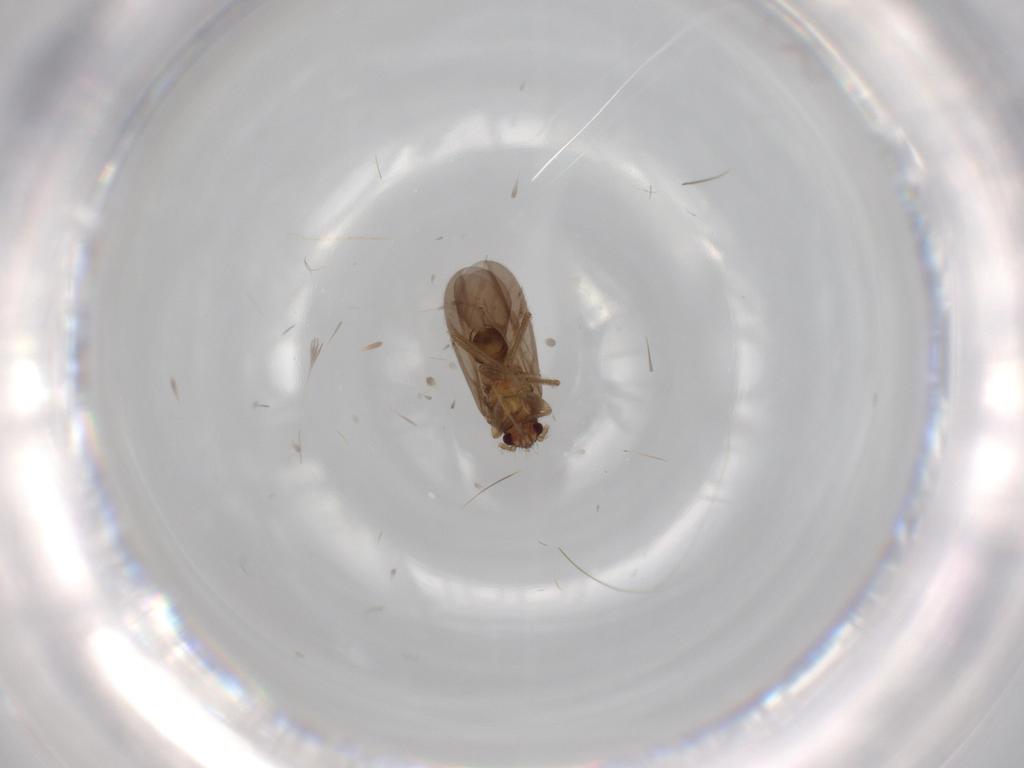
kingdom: Animalia
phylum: Arthropoda
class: Insecta
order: Hemiptera
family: Ceratocombidae
